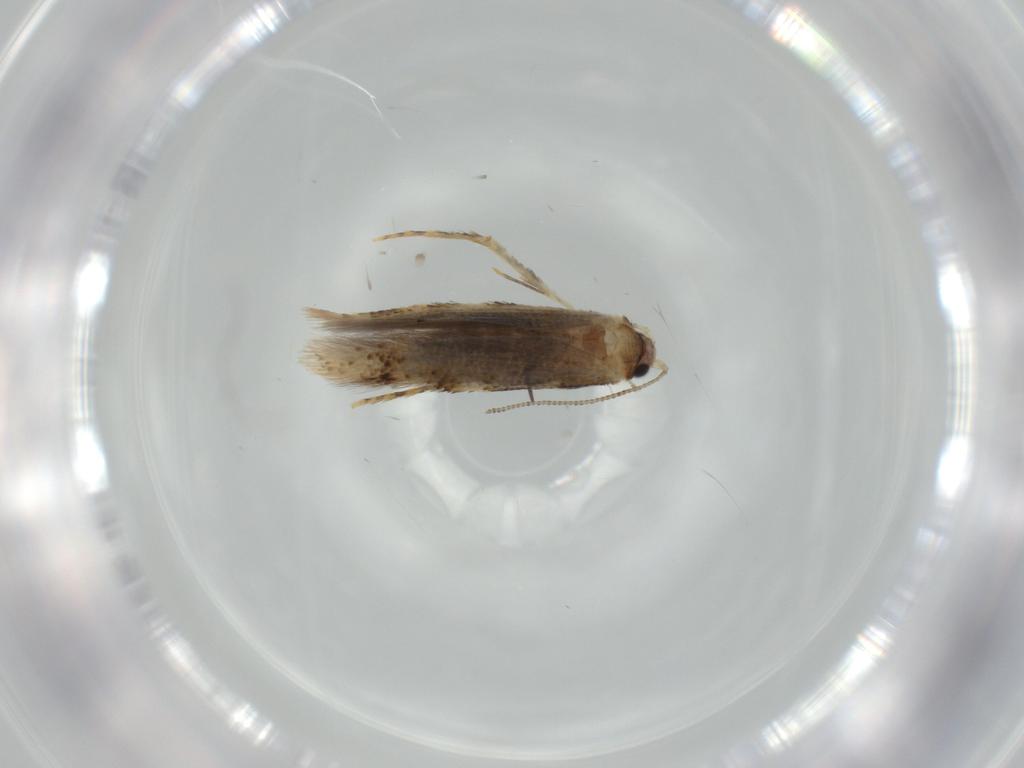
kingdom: Animalia
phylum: Arthropoda
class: Insecta
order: Lepidoptera
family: Tineidae
